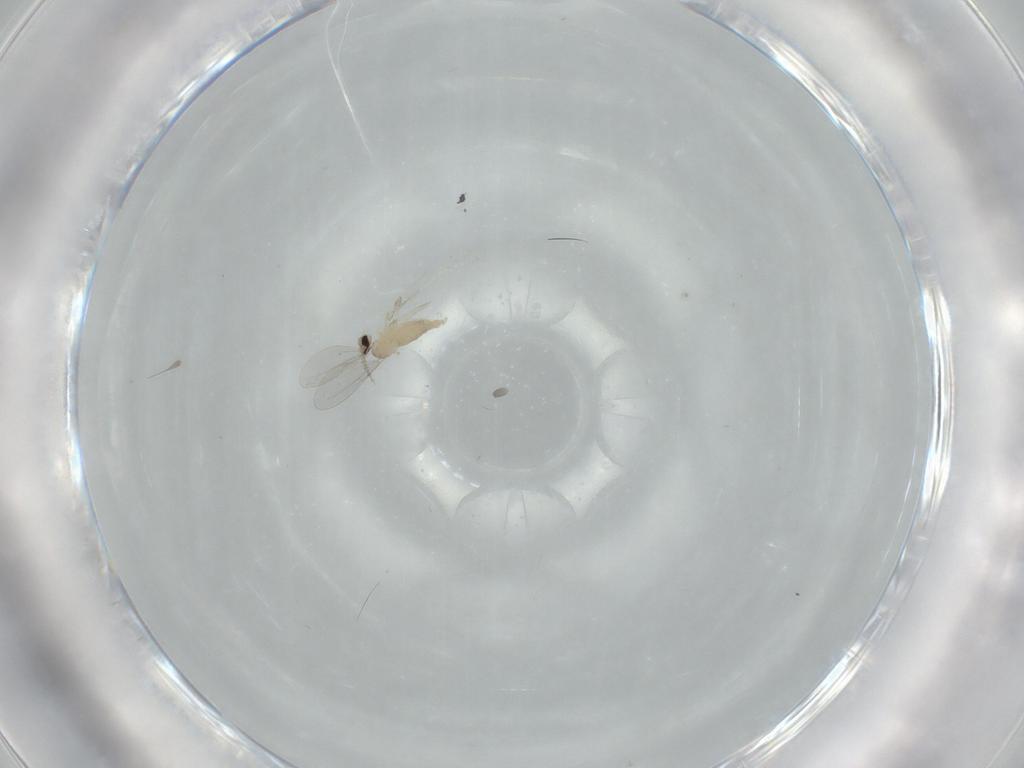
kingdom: Animalia
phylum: Arthropoda
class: Insecta
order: Diptera
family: Cecidomyiidae
